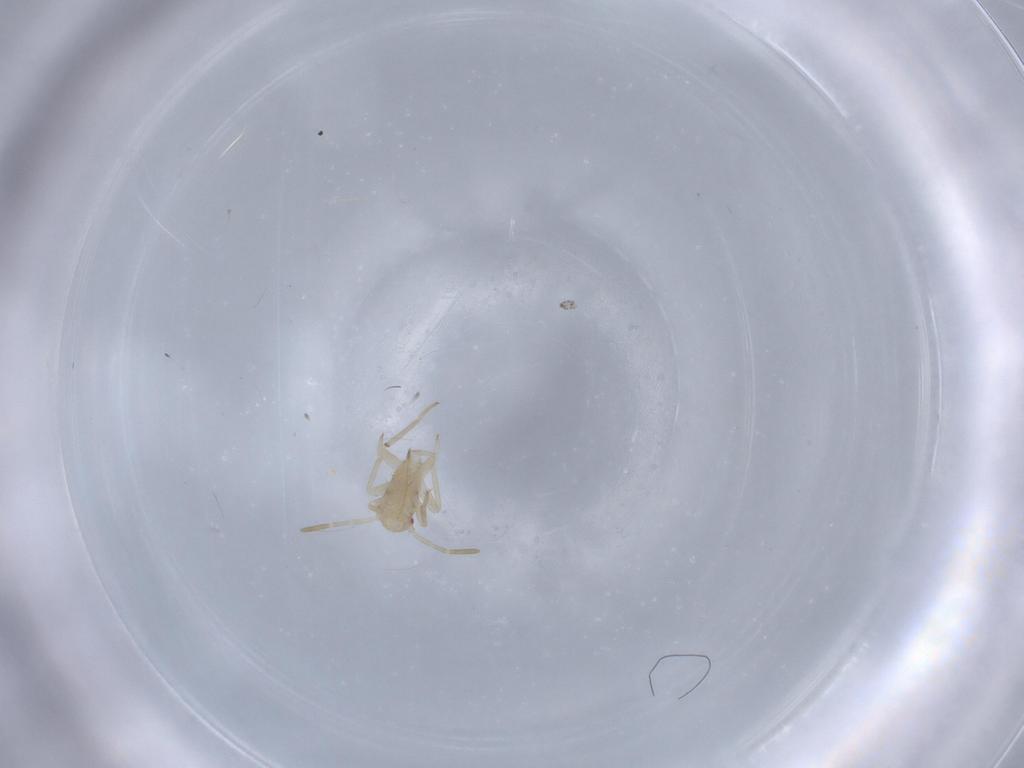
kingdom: Animalia
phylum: Arthropoda
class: Insecta
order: Hemiptera
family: Miridae
